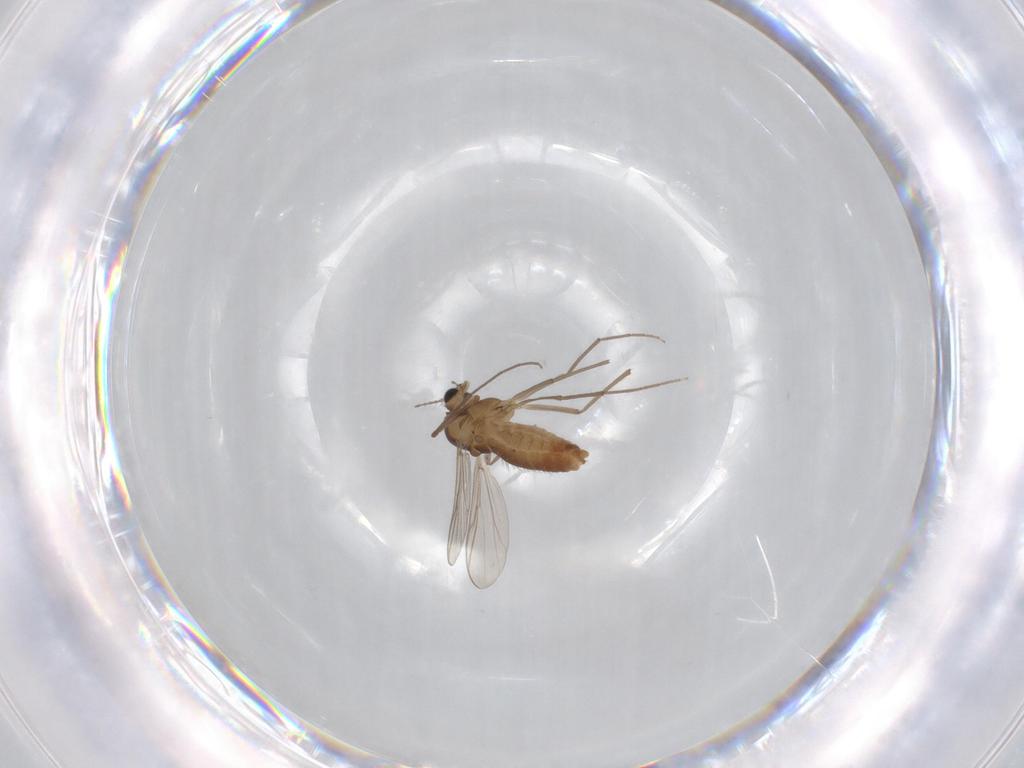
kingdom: Animalia
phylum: Arthropoda
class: Insecta
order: Diptera
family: Chironomidae
